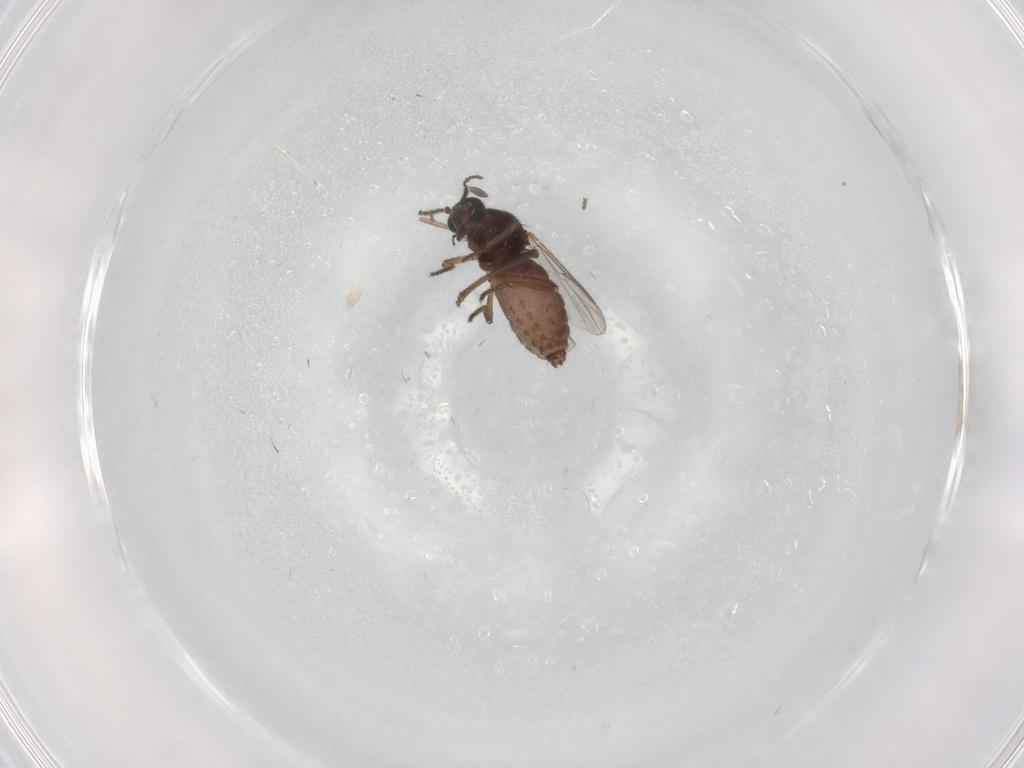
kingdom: Animalia
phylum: Arthropoda
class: Insecta
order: Diptera
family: Ceratopogonidae
